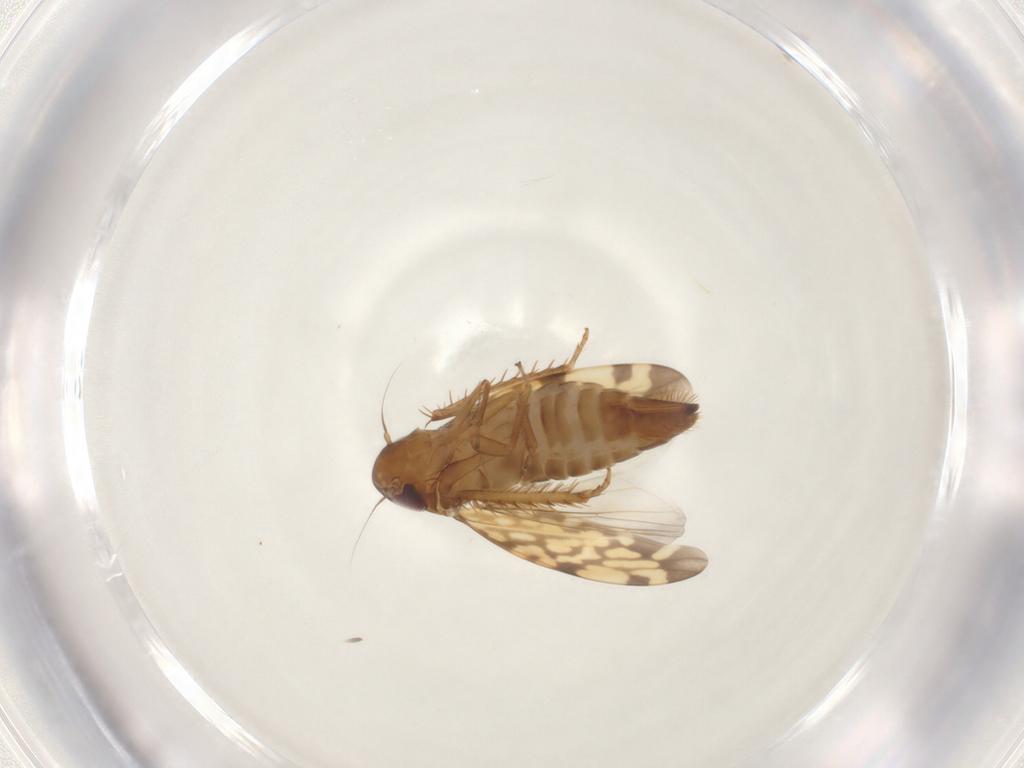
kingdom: Animalia
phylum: Arthropoda
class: Insecta
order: Hemiptera
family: Cicadellidae
